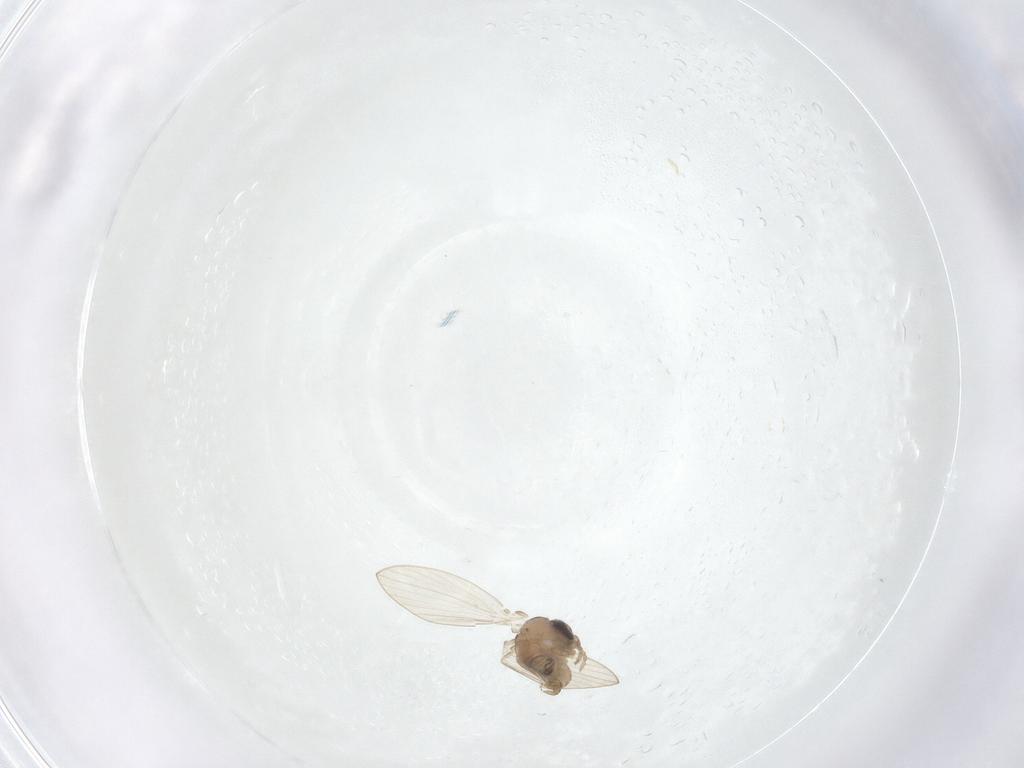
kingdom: Animalia
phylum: Arthropoda
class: Insecta
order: Diptera
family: Psychodidae
